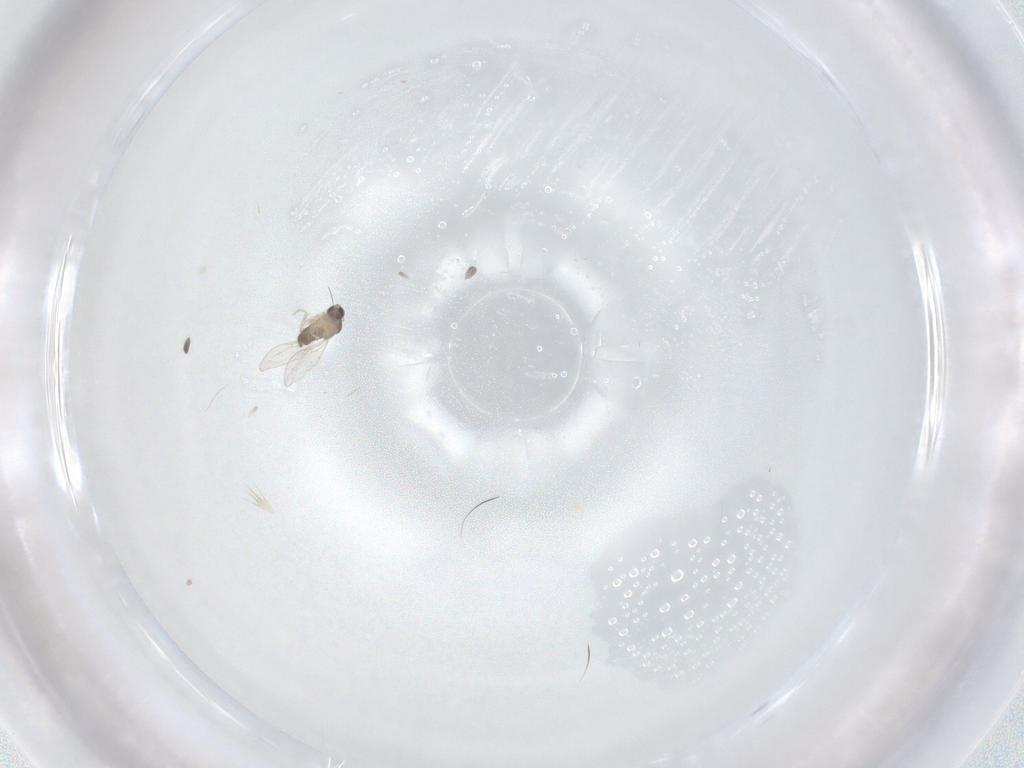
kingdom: Animalia
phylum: Arthropoda
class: Insecta
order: Diptera
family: Cecidomyiidae
